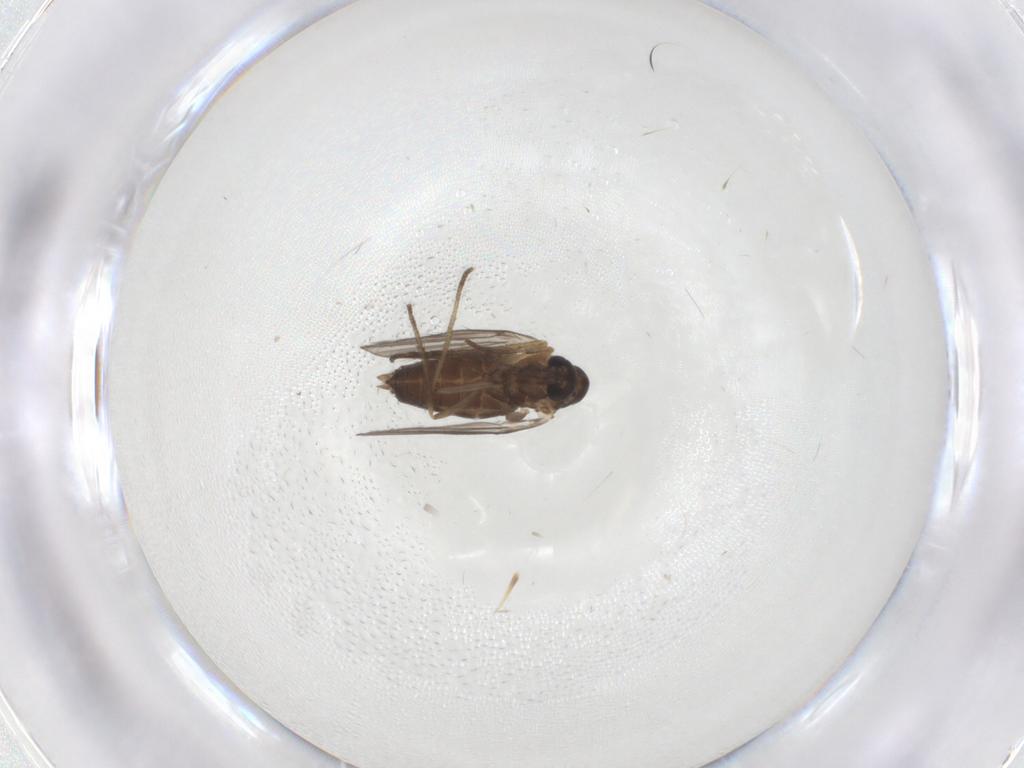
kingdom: Animalia
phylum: Arthropoda
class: Insecta
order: Diptera
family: Psychodidae
